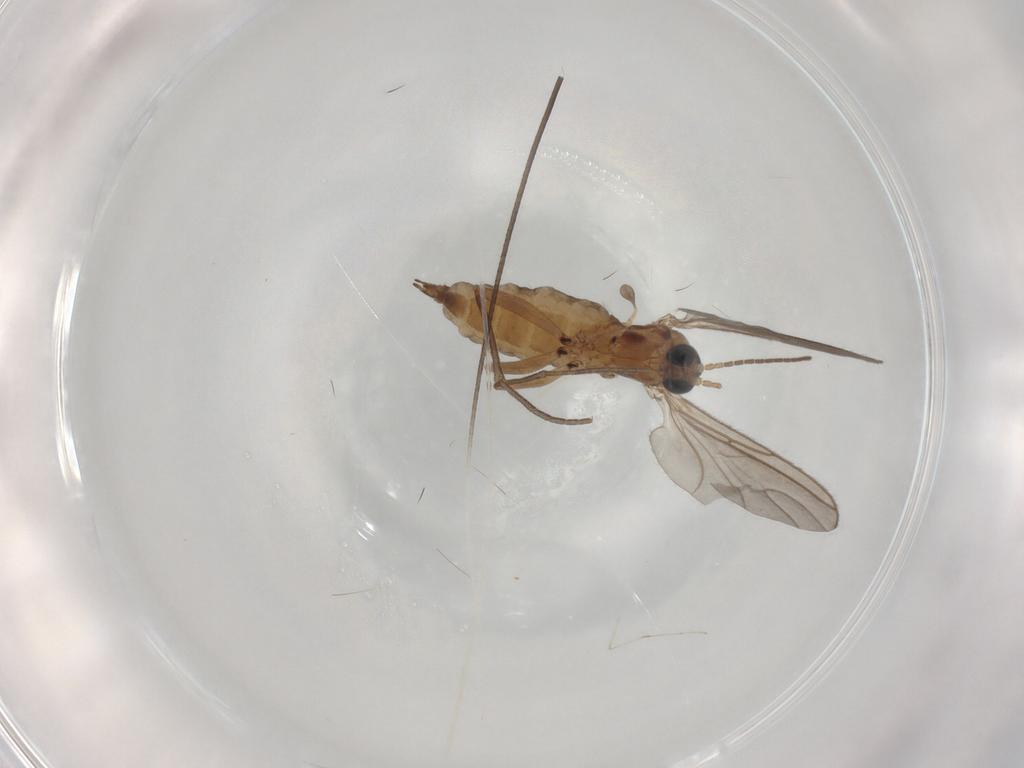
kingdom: Animalia
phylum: Arthropoda
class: Insecta
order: Diptera
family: Sciaridae
